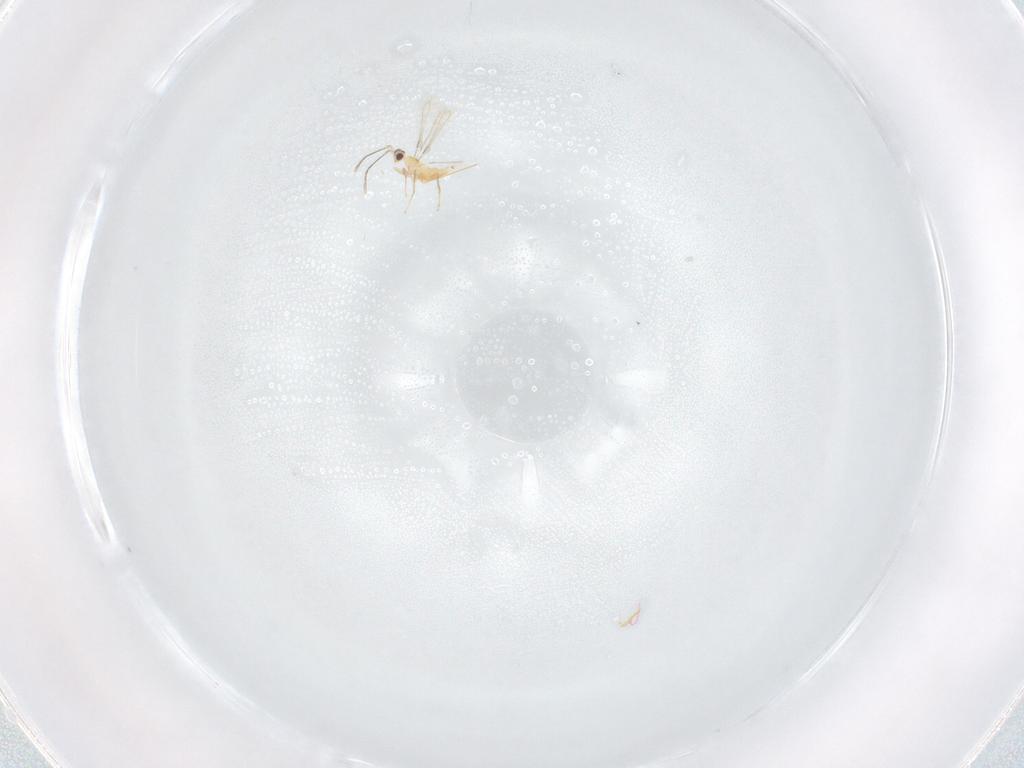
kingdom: Animalia
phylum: Arthropoda
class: Insecta
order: Hymenoptera
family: Mymaridae
